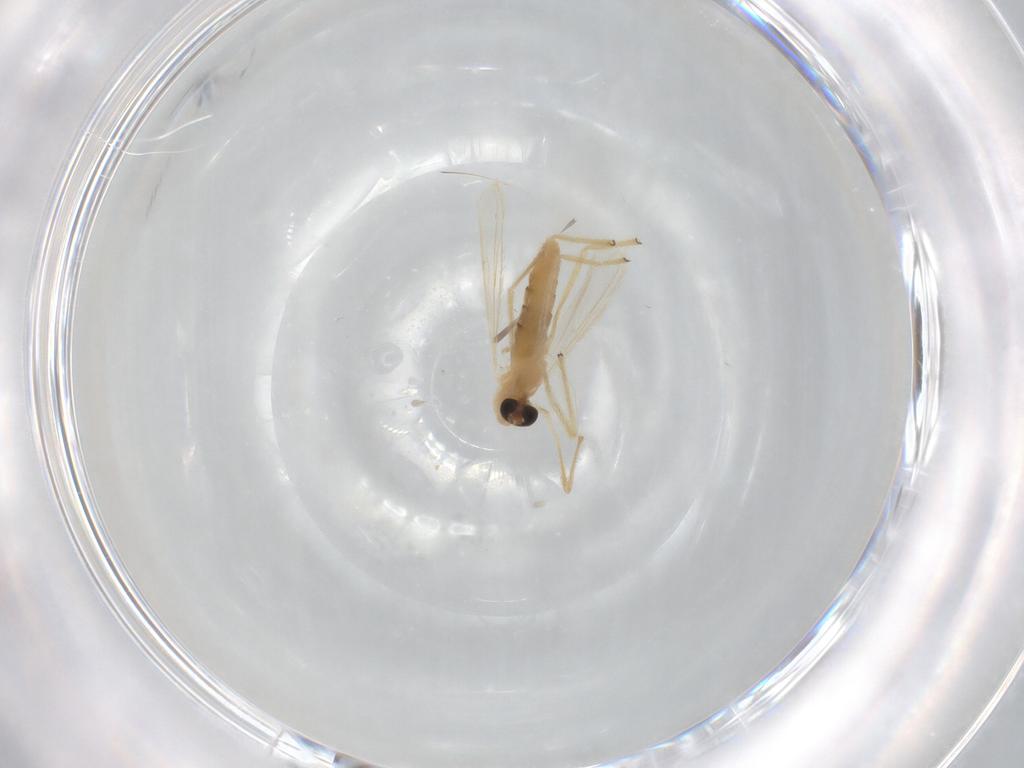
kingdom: Animalia
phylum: Arthropoda
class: Insecta
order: Diptera
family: Chironomidae
